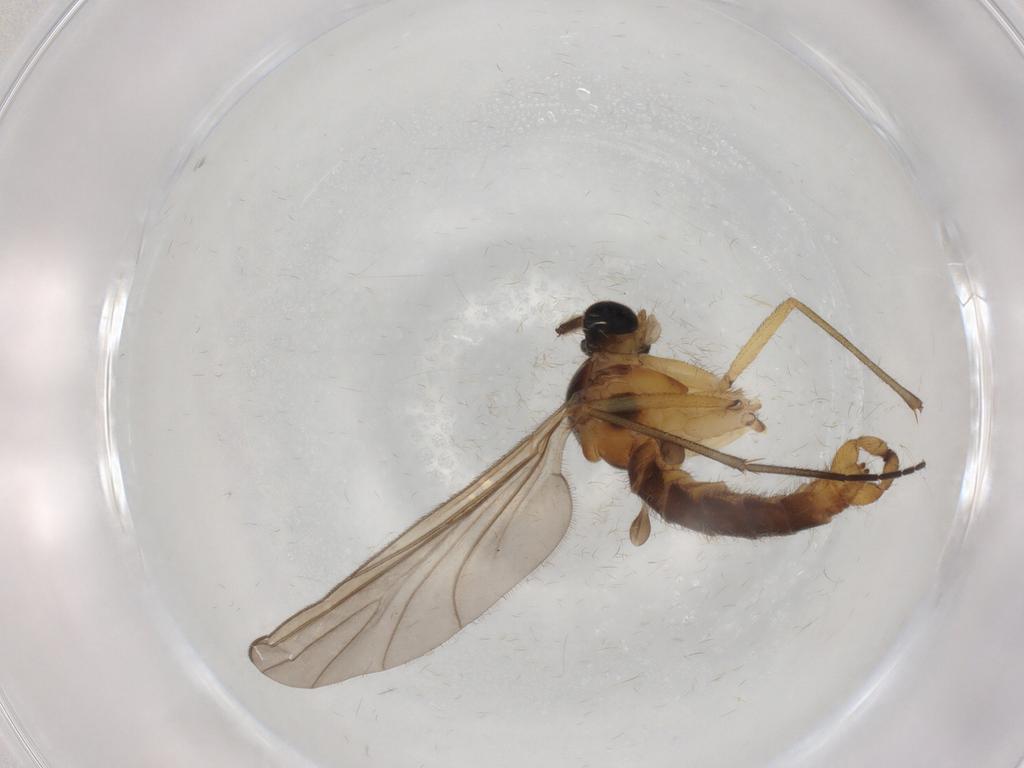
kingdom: Animalia
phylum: Arthropoda
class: Insecta
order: Diptera
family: Sciaridae
